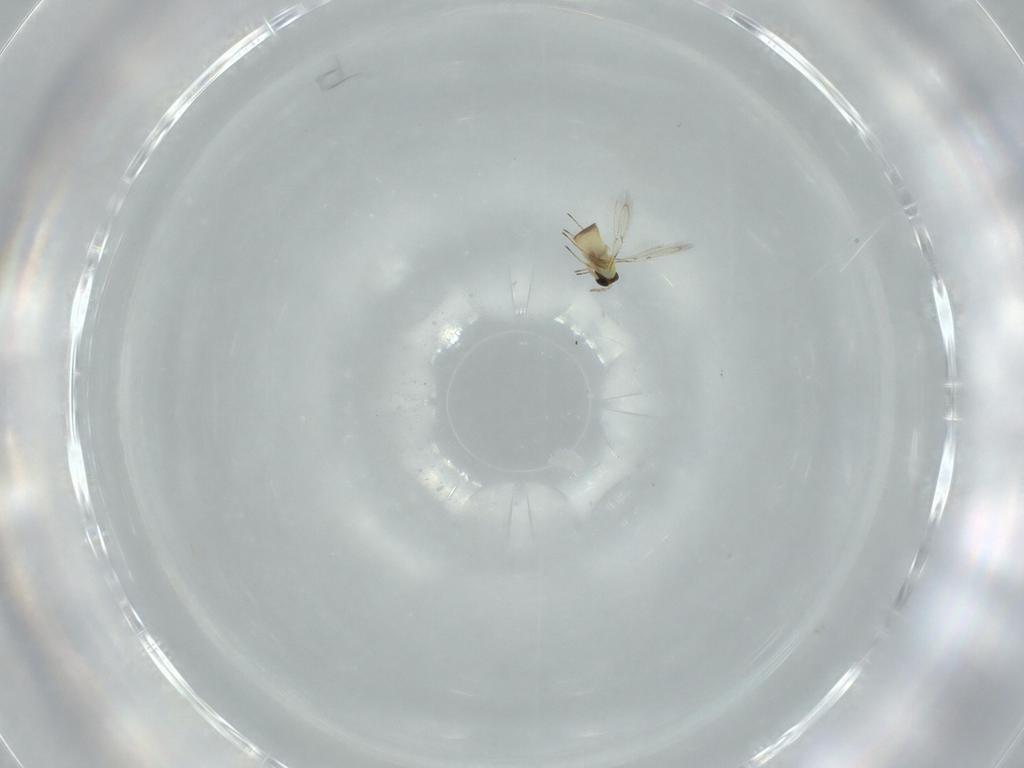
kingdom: Animalia
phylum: Arthropoda
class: Insecta
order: Hymenoptera
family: Trichogrammatidae
